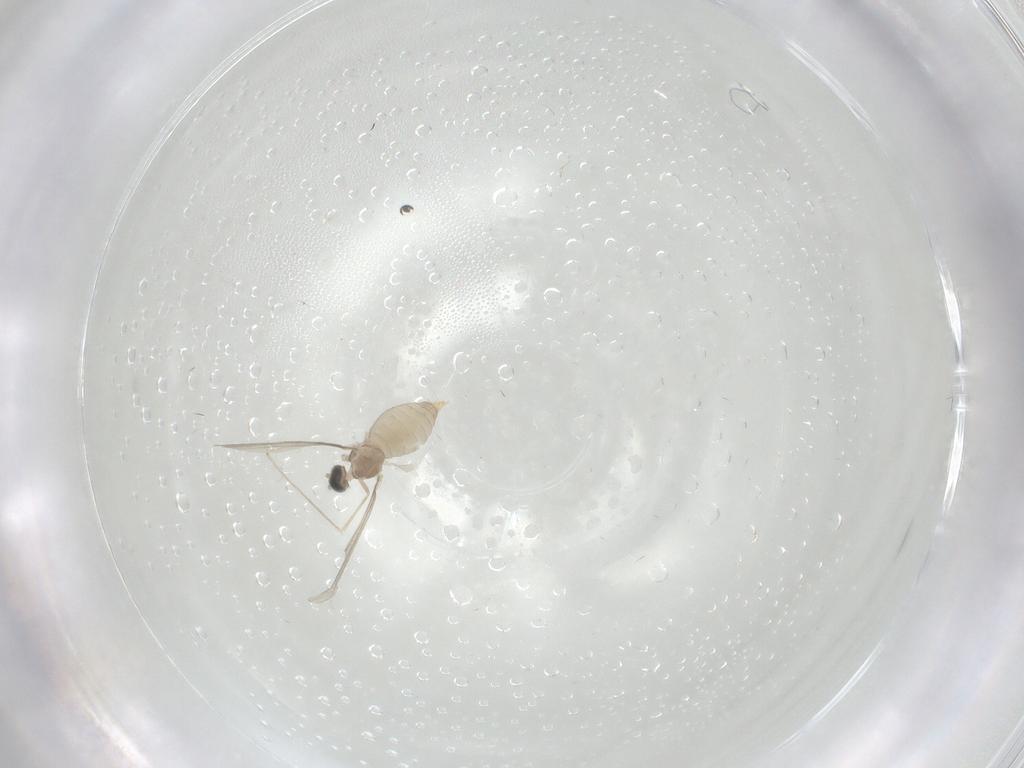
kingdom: Animalia
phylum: Arthropoda
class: Insecta
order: Diptera
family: Cecidomyiidae
